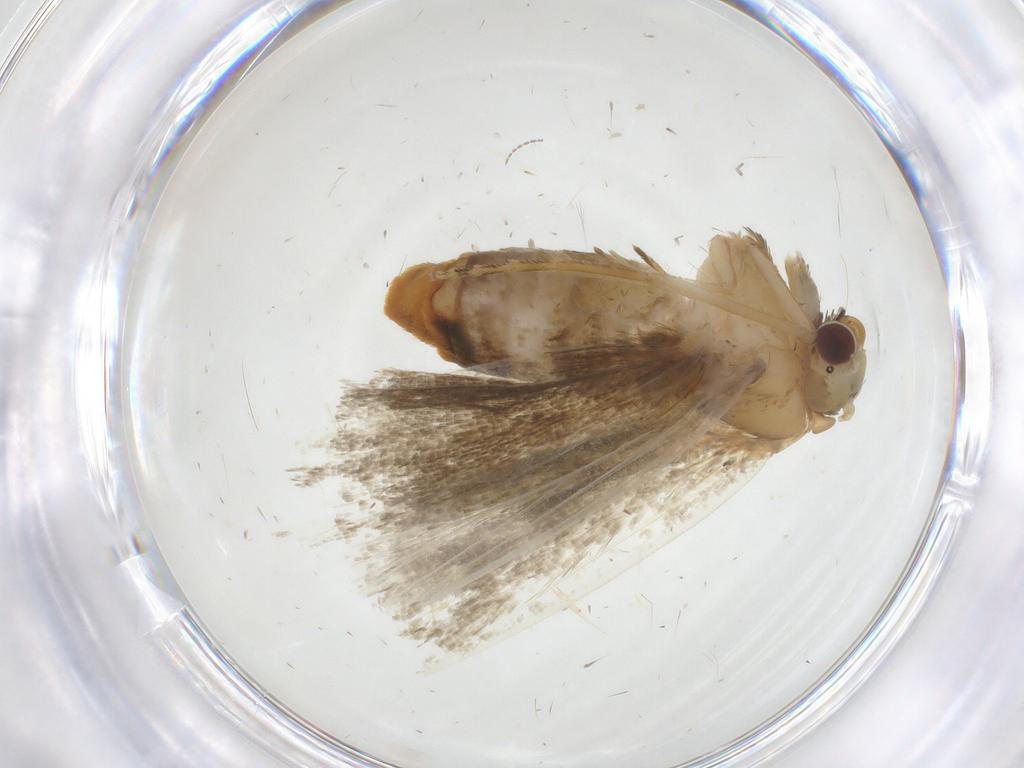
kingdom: Animalia
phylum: Arthropoda
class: Insecta
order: Lepidoptera
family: Erebidae
